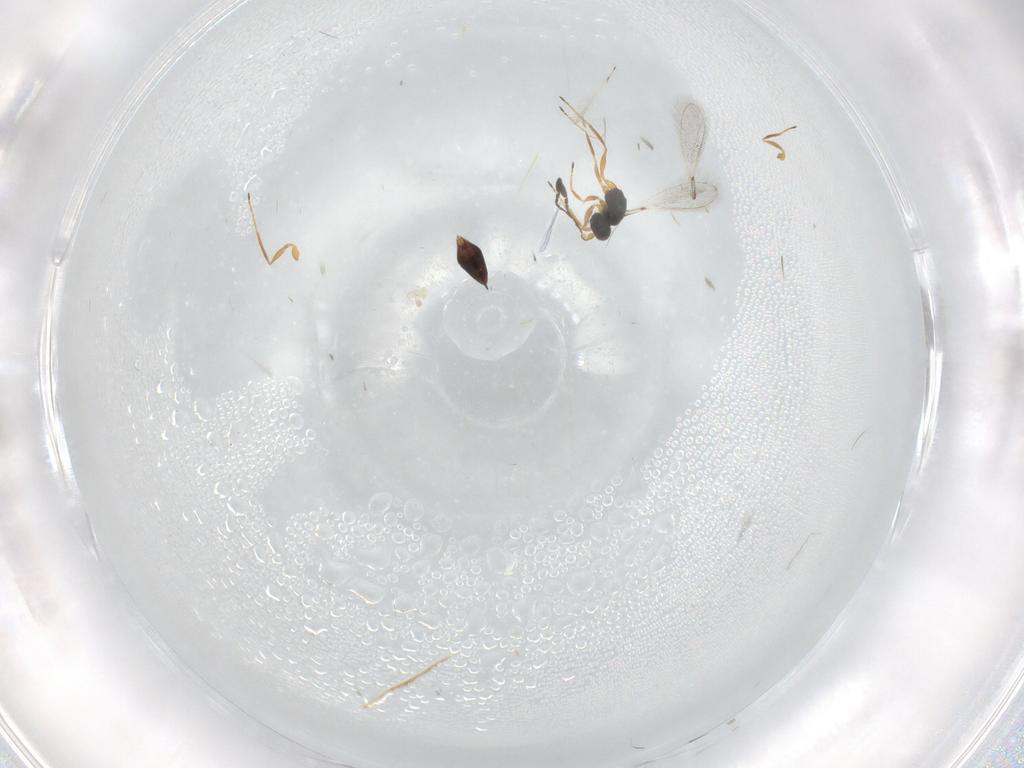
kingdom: Animalia
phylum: Arthropoda
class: Insecta
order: Hymenoptera
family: Mymaridae
